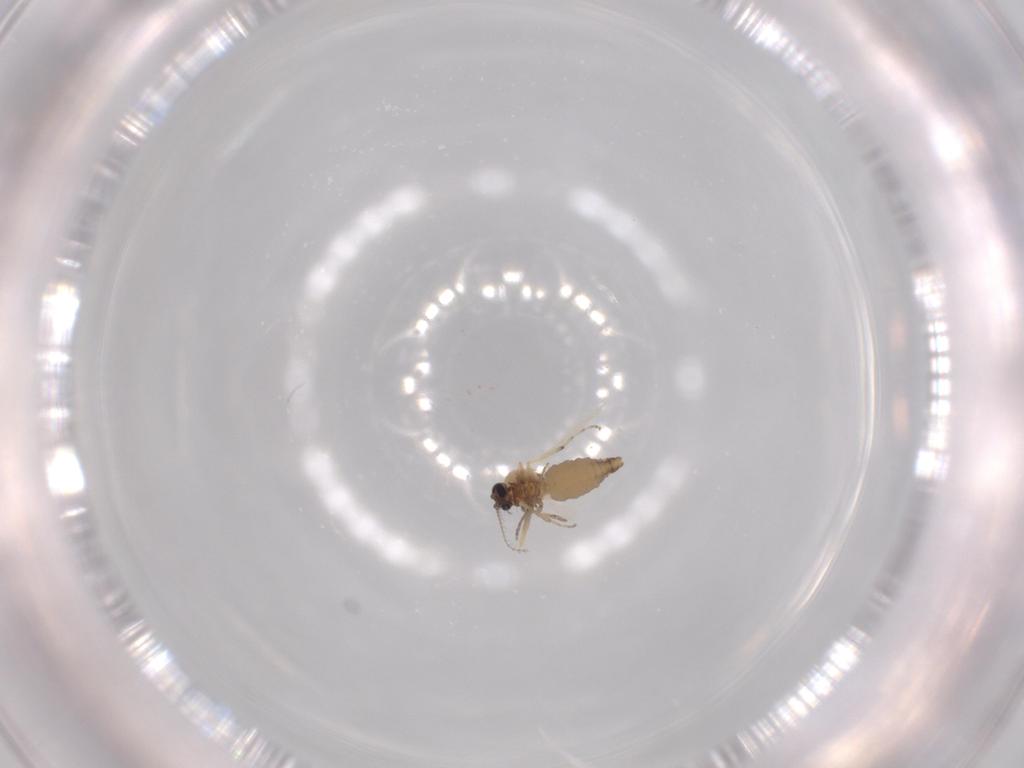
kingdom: Animalia
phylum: Arthropoda
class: Insecta
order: Diptera
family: Ceratopogonidae
